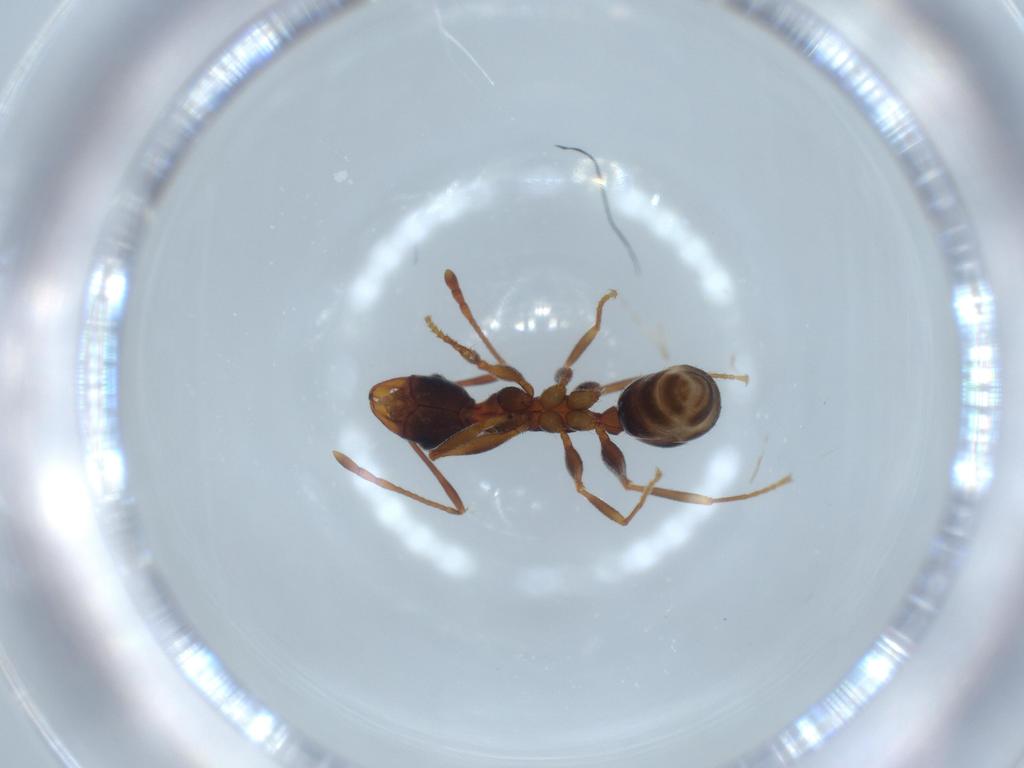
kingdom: Animalia
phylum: Arthropoda
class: Insecta
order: Hymenoptera
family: Formicidae
